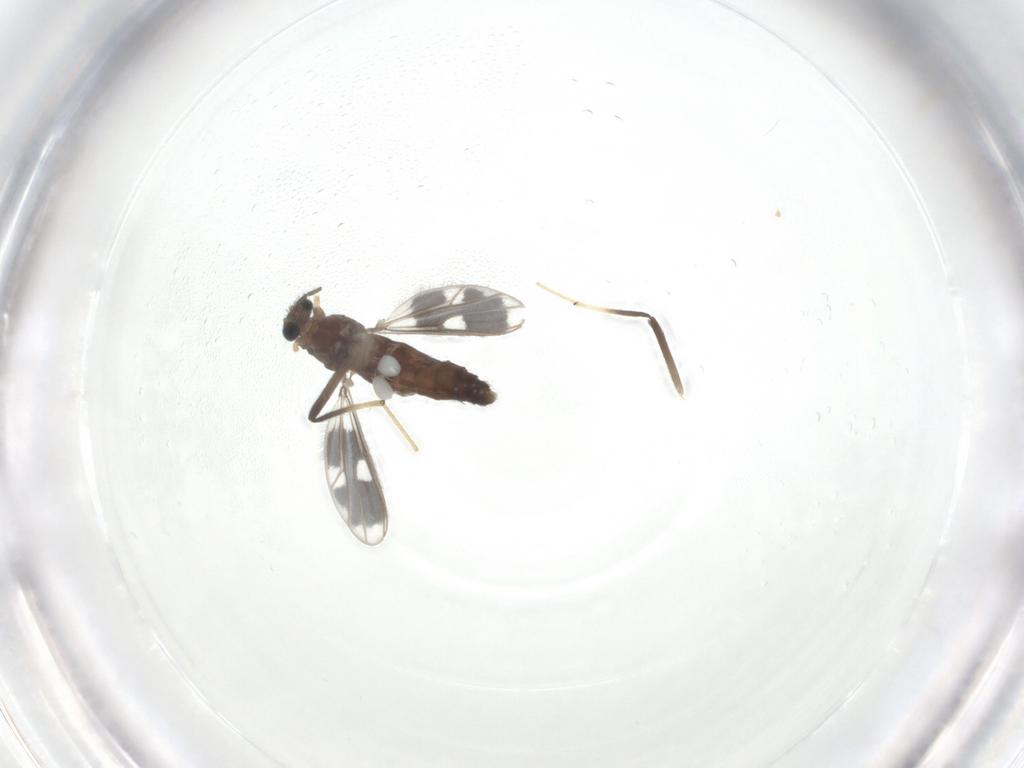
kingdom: Animalia
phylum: Arthropoda
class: Insecta
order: Diptera
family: Chironomidae
